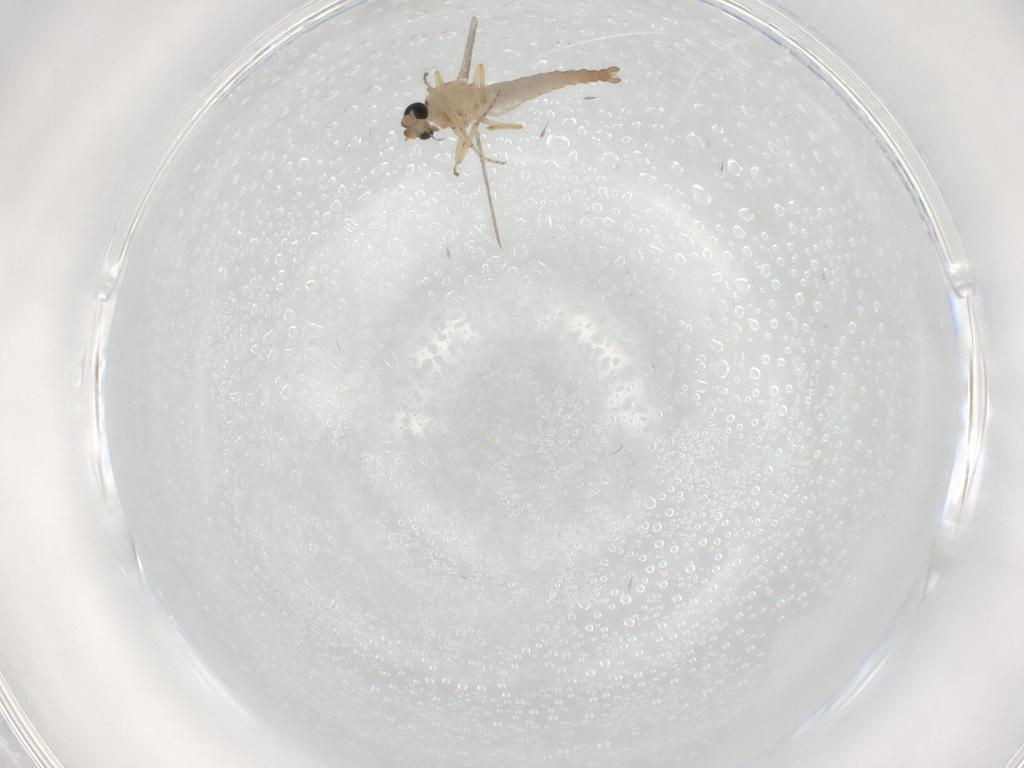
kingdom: Animalia
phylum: Arthropoda
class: Insecta
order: Diptera
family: Ceratopogonidae
